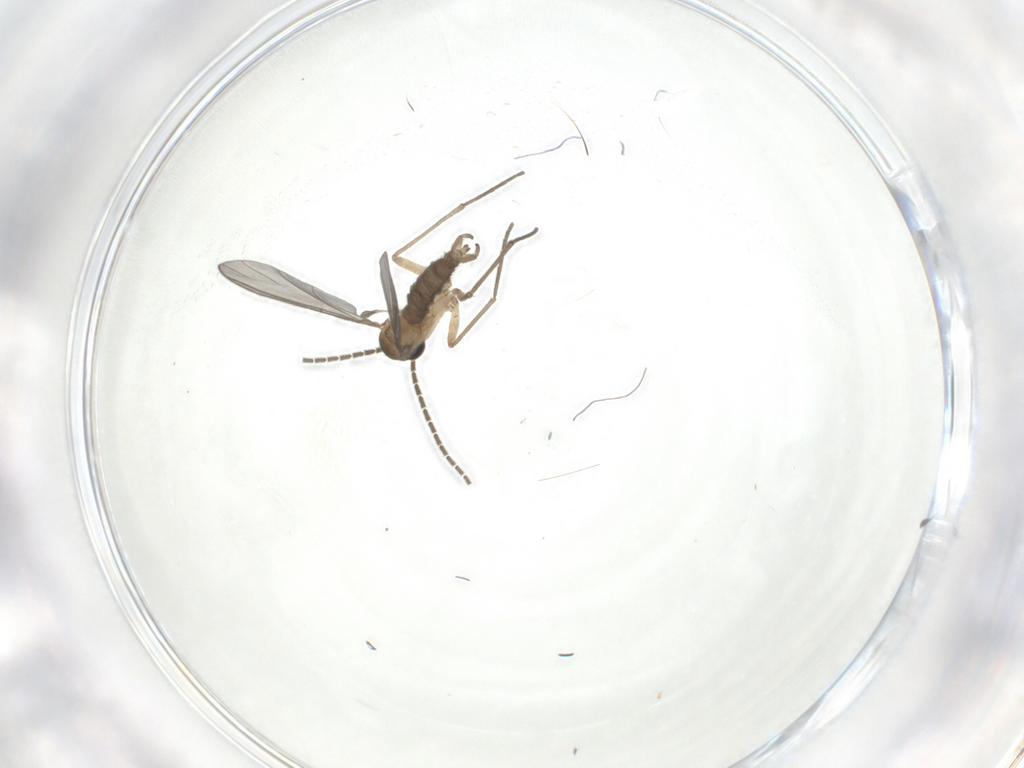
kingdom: Animalia
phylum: Arthropoda
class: Insecta
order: Diptera
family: Sciaridae
